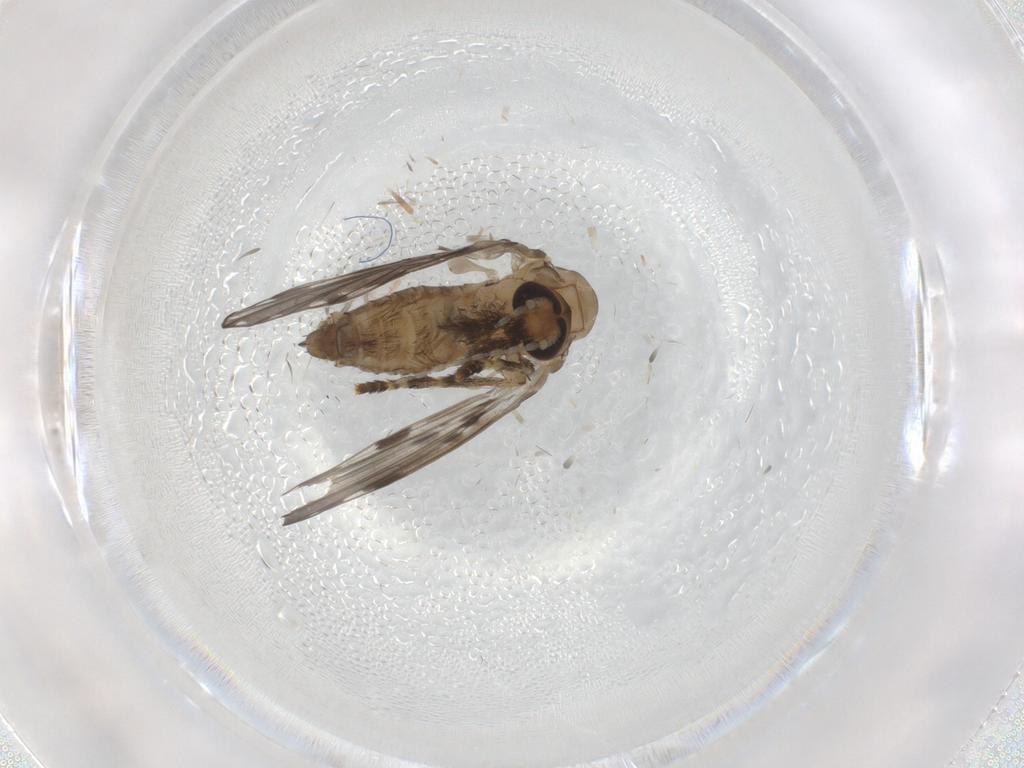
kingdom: Animalia
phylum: Arthropoda
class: Insecta
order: Diptera
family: Psychodidae
